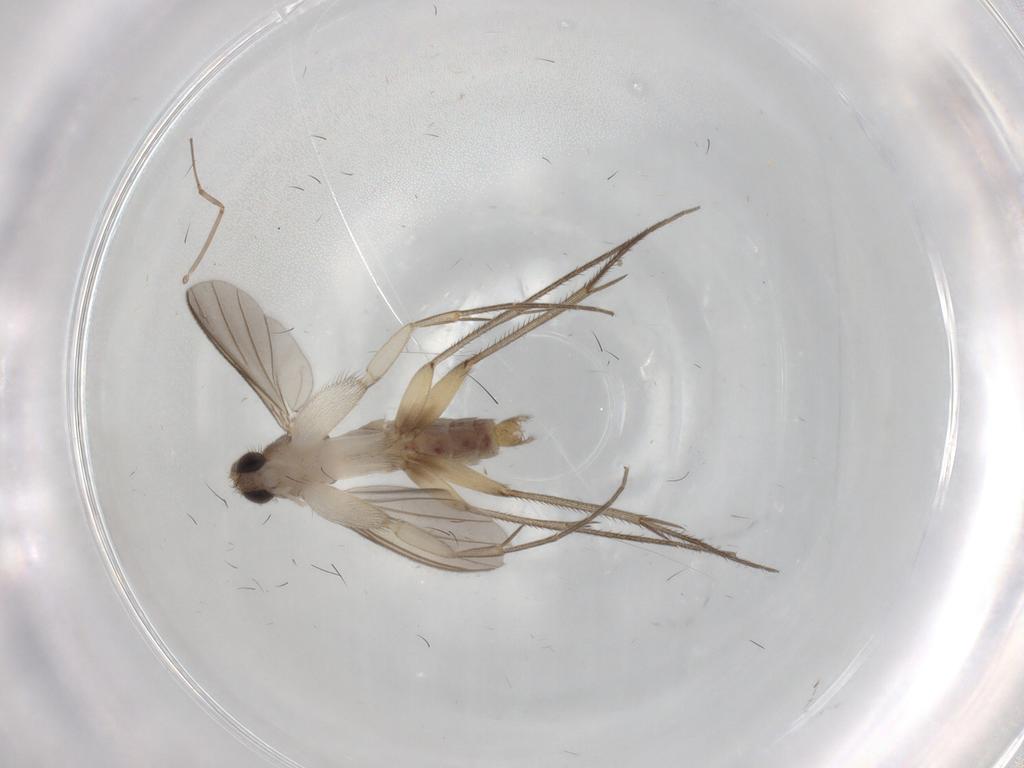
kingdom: Animalia
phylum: Arthropoda
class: Insecta
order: Diptera
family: Mycetophilidae
